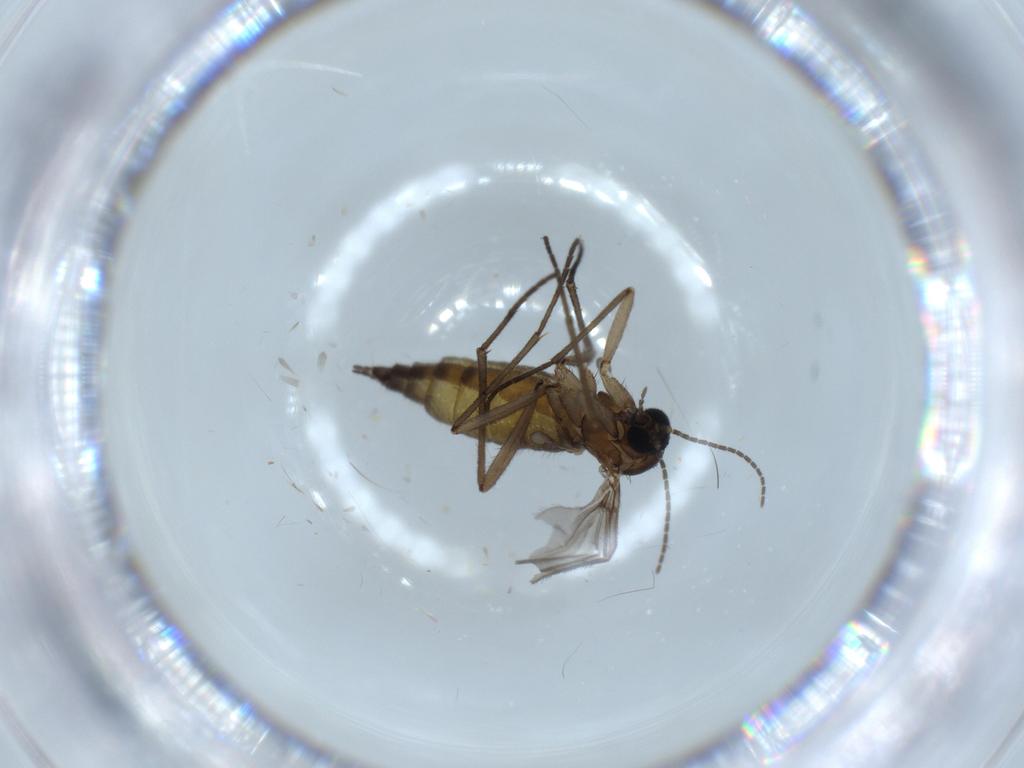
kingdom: Animalia
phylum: Arthropoda
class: Insecta
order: Diptera
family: Sciaridae
